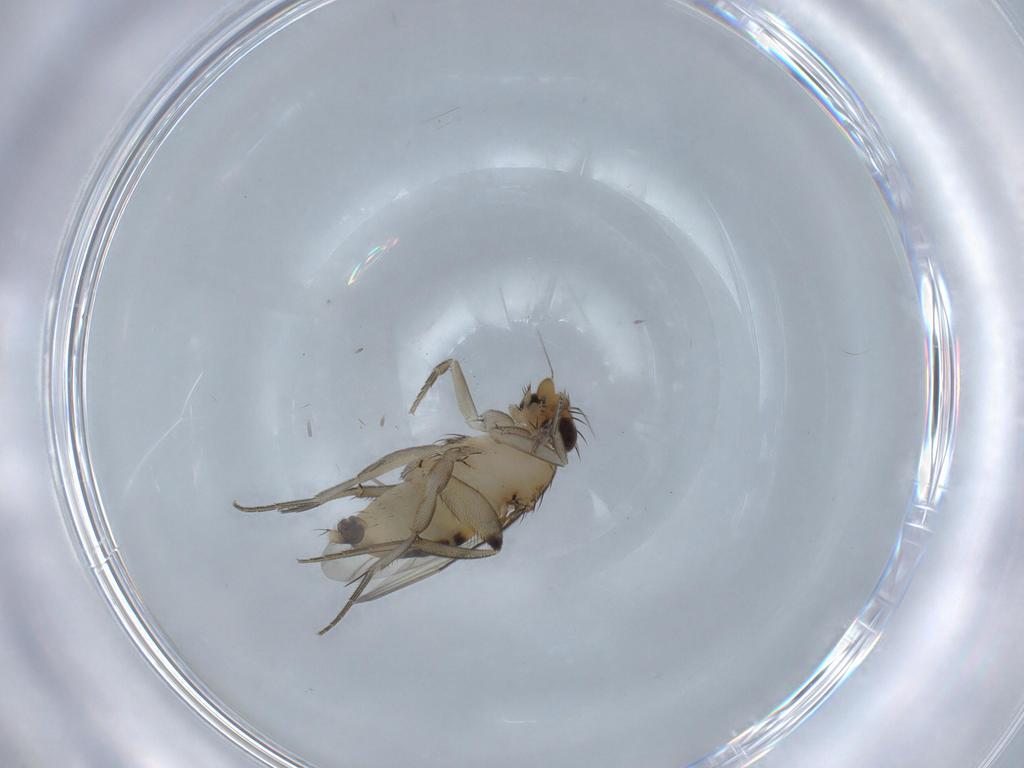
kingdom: Animalia
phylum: Arthropoda
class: Insecta
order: Diptera
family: Phoridae
